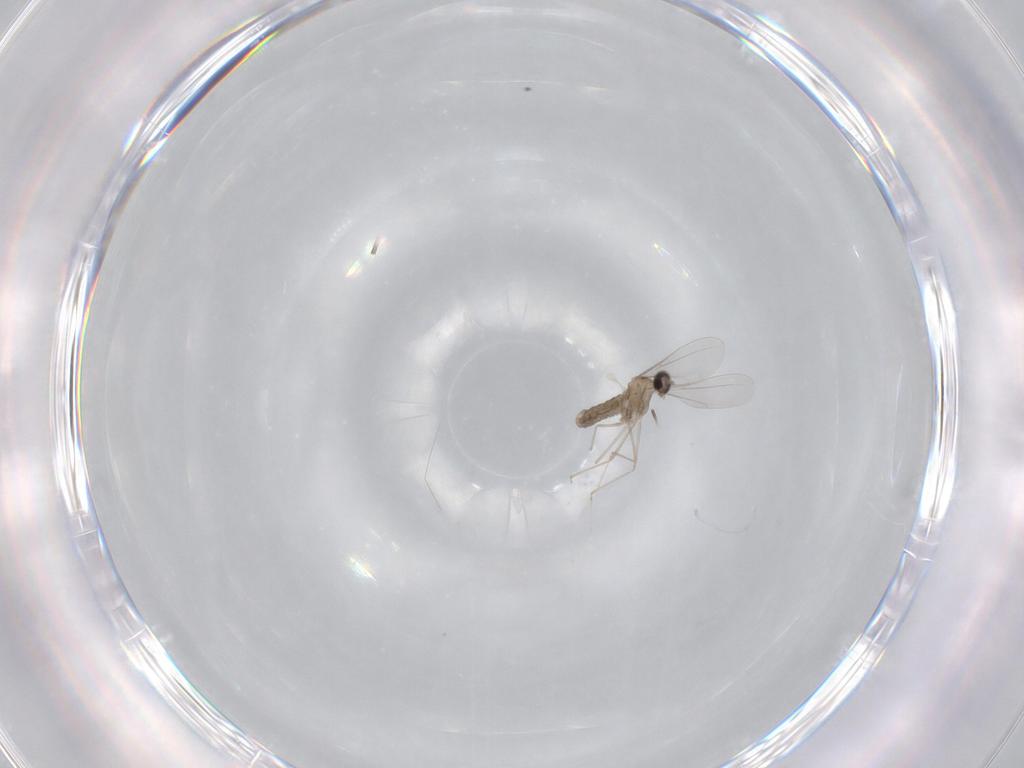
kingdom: Animalia
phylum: Arthropoda
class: Insecta
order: Diptera
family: Cecidomyiidae
